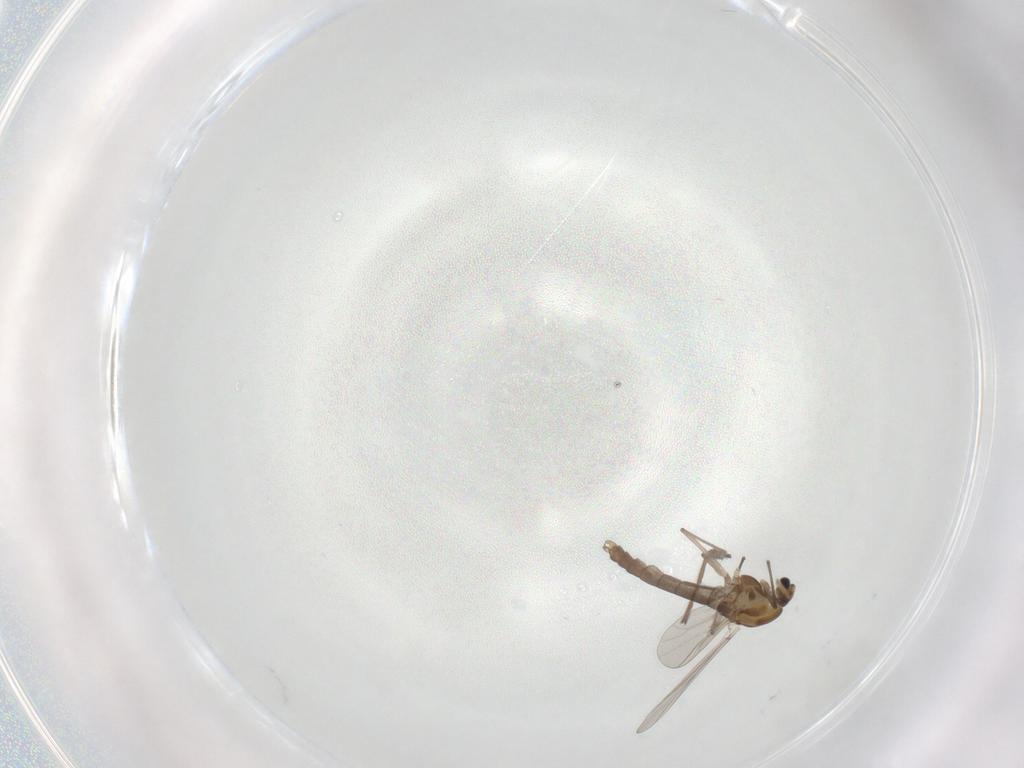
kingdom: Animalia
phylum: Arthropoda
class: Insecta
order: Diptera
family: Chironomidae
